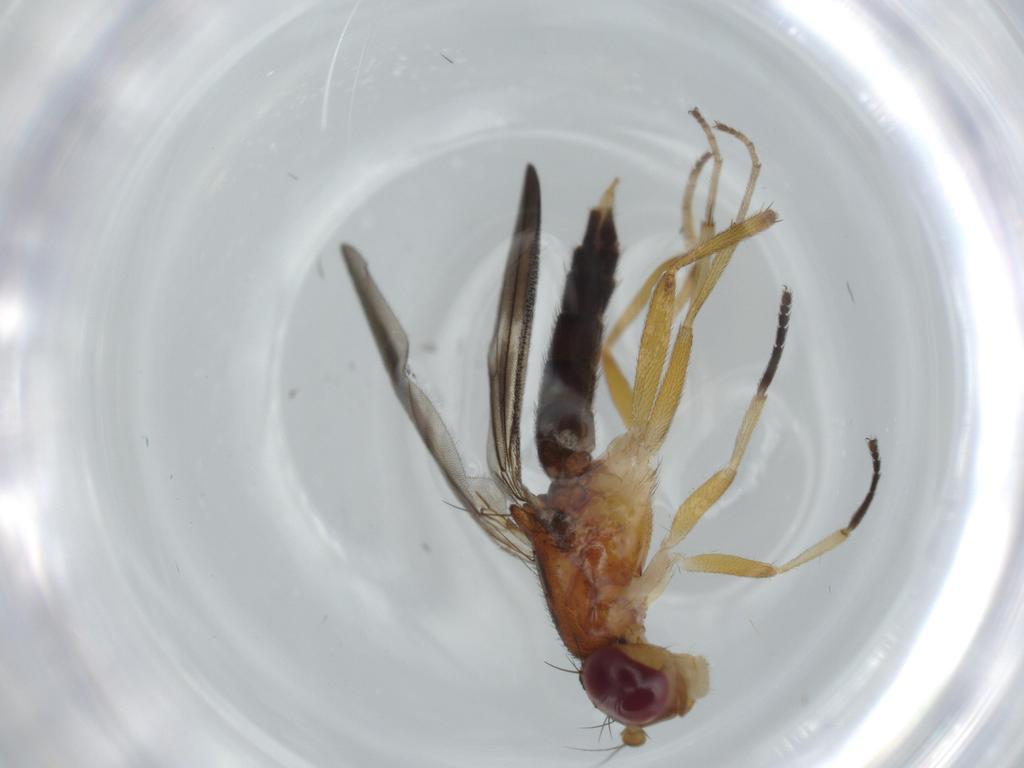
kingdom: Animalia
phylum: Arthropoda
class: Insecta
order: Diptera
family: Clusiidae
